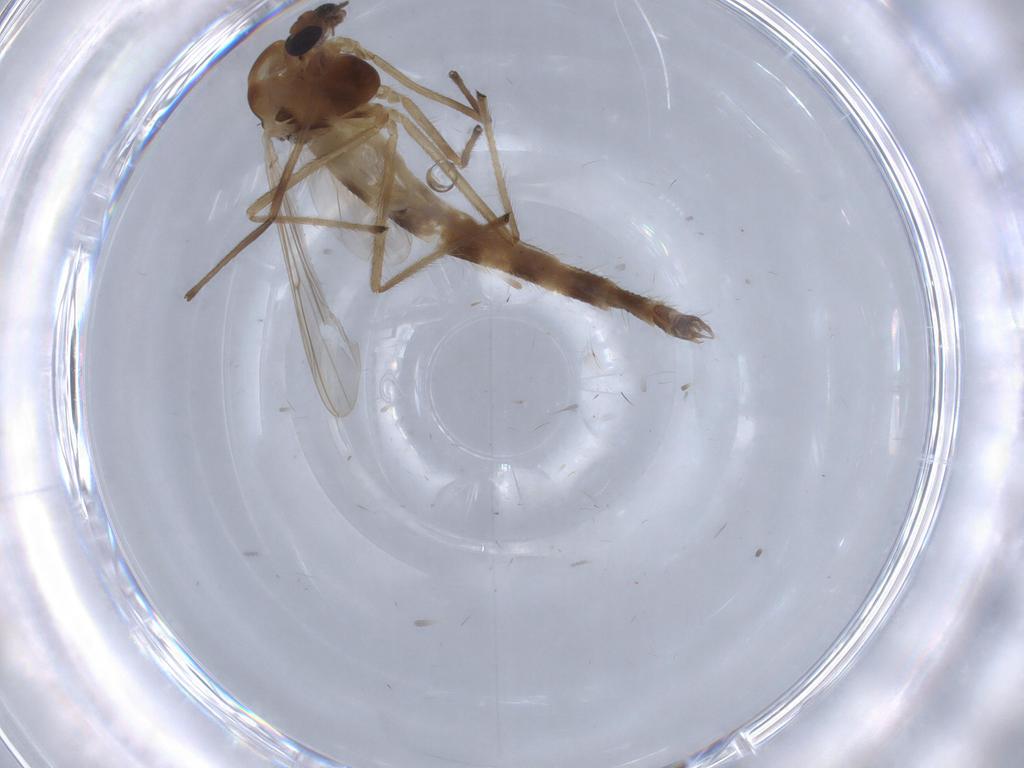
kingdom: Animalia
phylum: Arthropoda
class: Insecta
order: Diptera
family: Chironomidae
